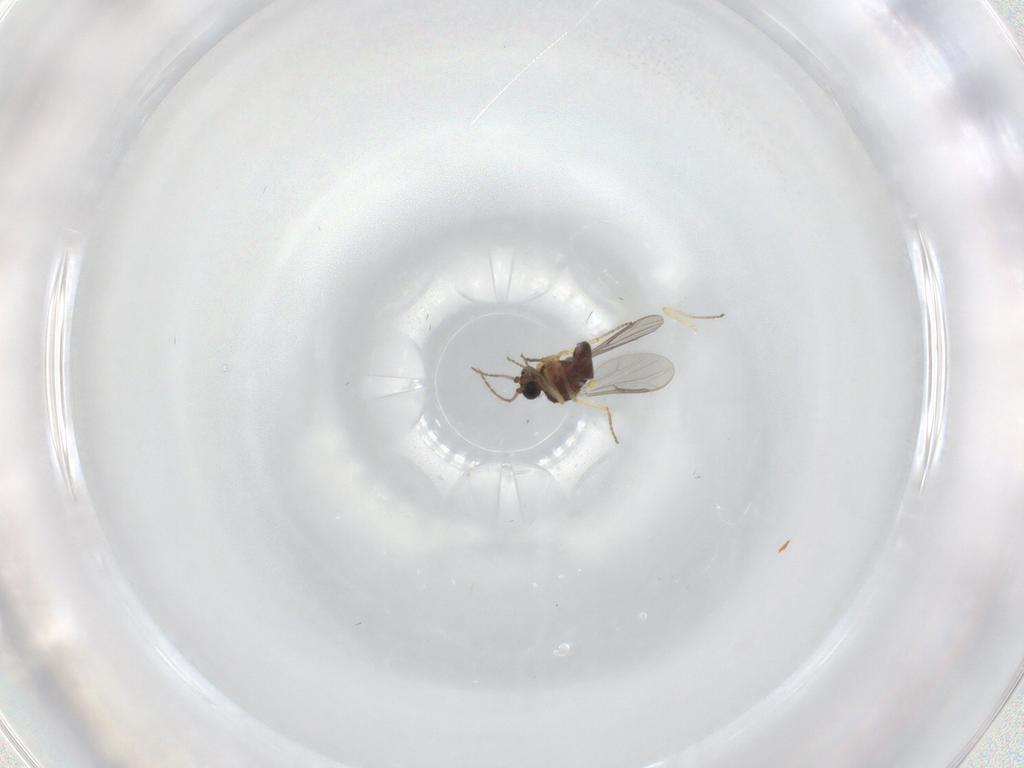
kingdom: Animalia
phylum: Arthropoda
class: Insecta
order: Diptera
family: Ceratopogonidae
